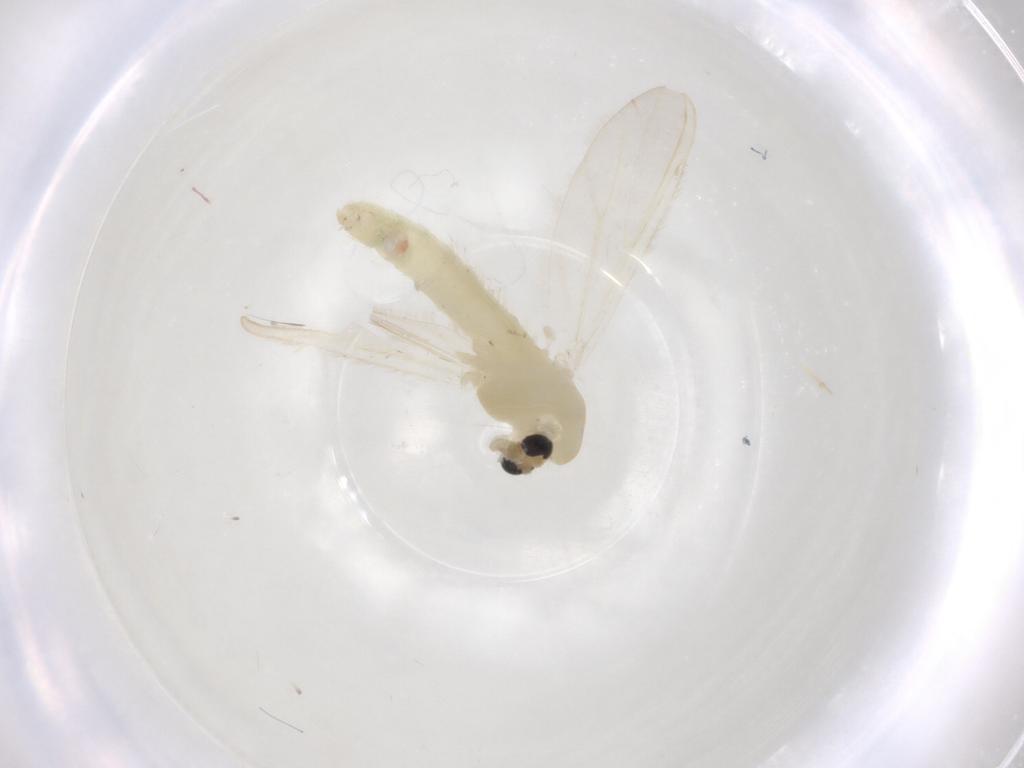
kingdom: Animalia
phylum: Arthropoda
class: Insecta
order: Diptera
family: Chironomidae
